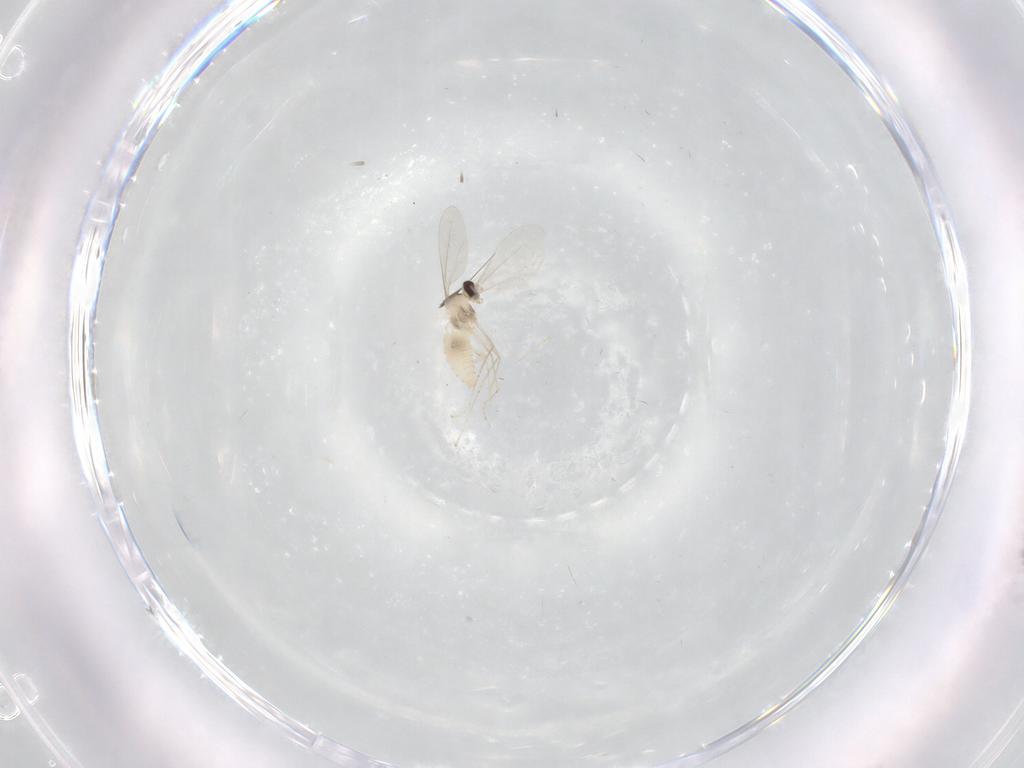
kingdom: Animalia
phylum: Arthropoda
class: Insecta
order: Diptera
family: Cecidomyiidae
